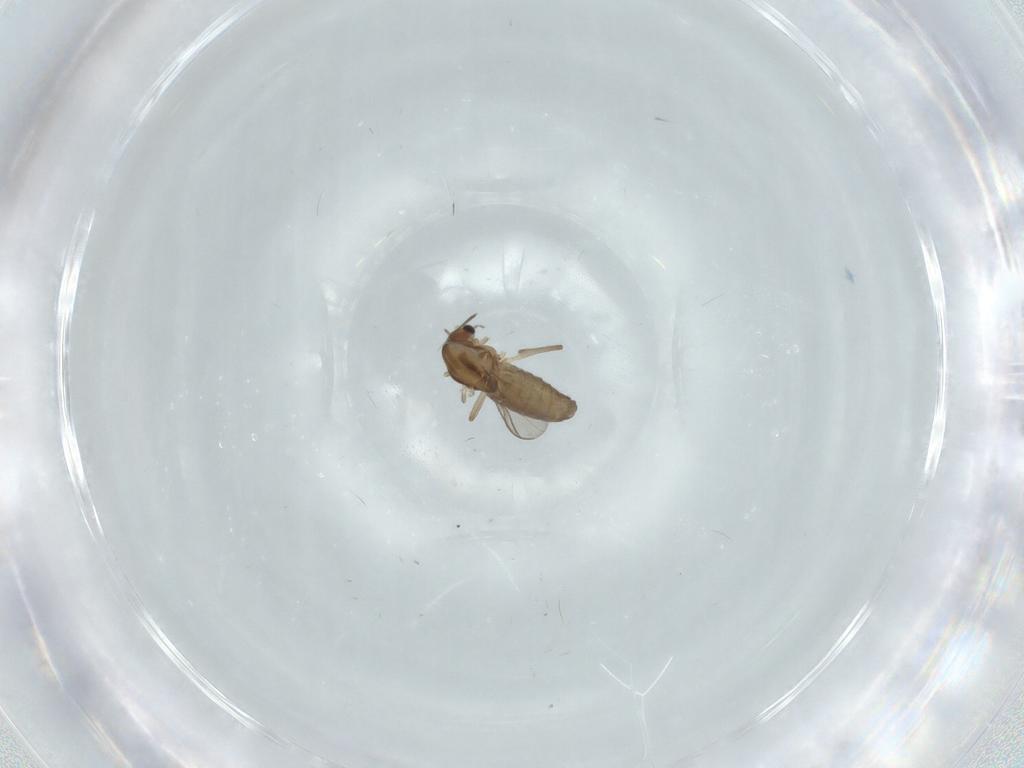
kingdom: Animalia
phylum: Arthropoda
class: Insecta
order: Diptera
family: Chironomidae
